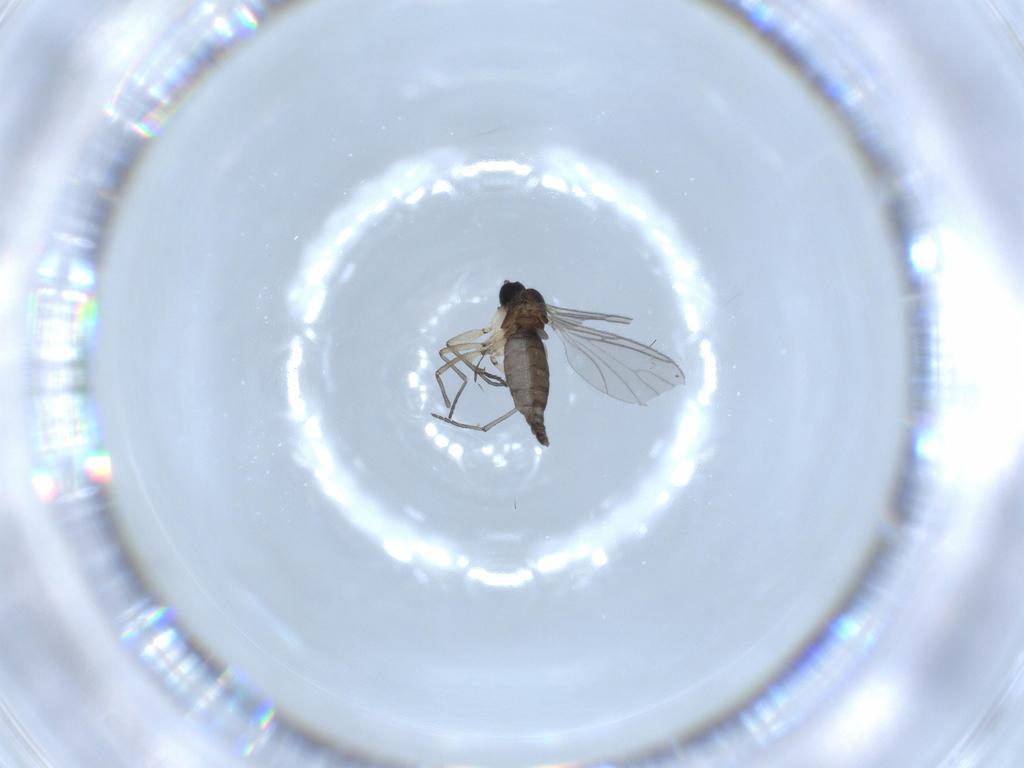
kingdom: Animalia
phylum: Arthropoda
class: Insecta
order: Diptera
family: Sciaridae
